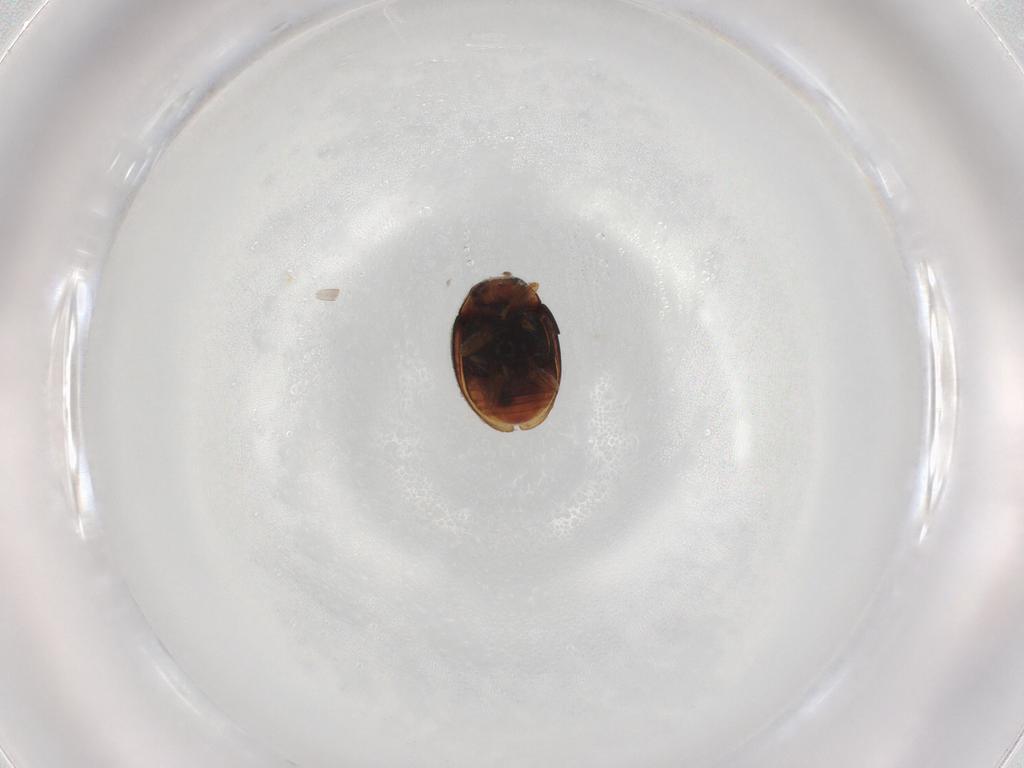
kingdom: Animalia
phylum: Arthropoda
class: Insecta
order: Coleoptera
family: Coccinellidae
